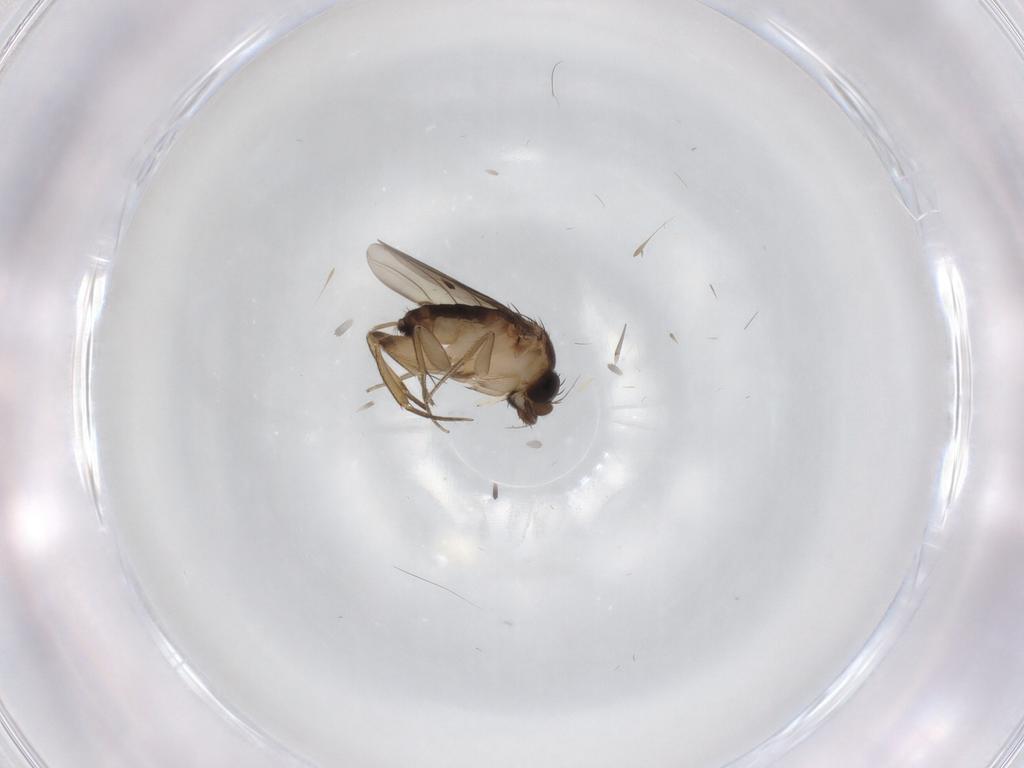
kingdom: Animalia
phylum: Arthropoda
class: Insecta
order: Diptera
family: Phoridae
